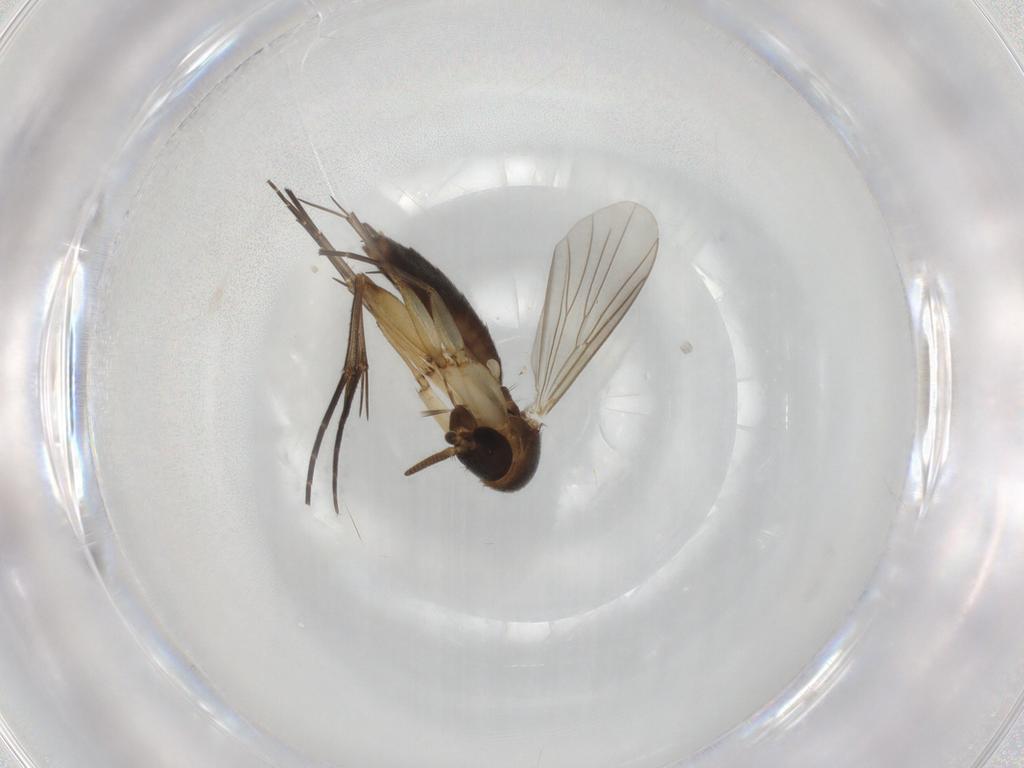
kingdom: Animalia
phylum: Arthropoda
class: Insecta
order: Diptera
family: Mycetophilidae
